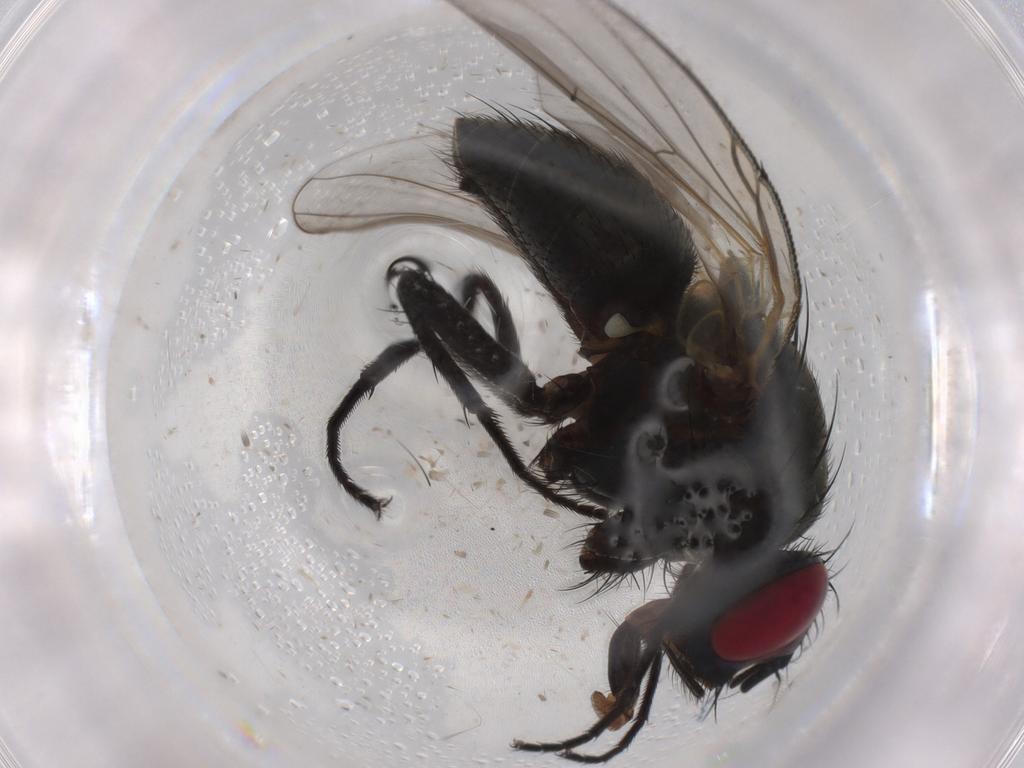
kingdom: Animalia
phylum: Arthropoda
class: Insecta
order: Diptera
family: Muscidae
